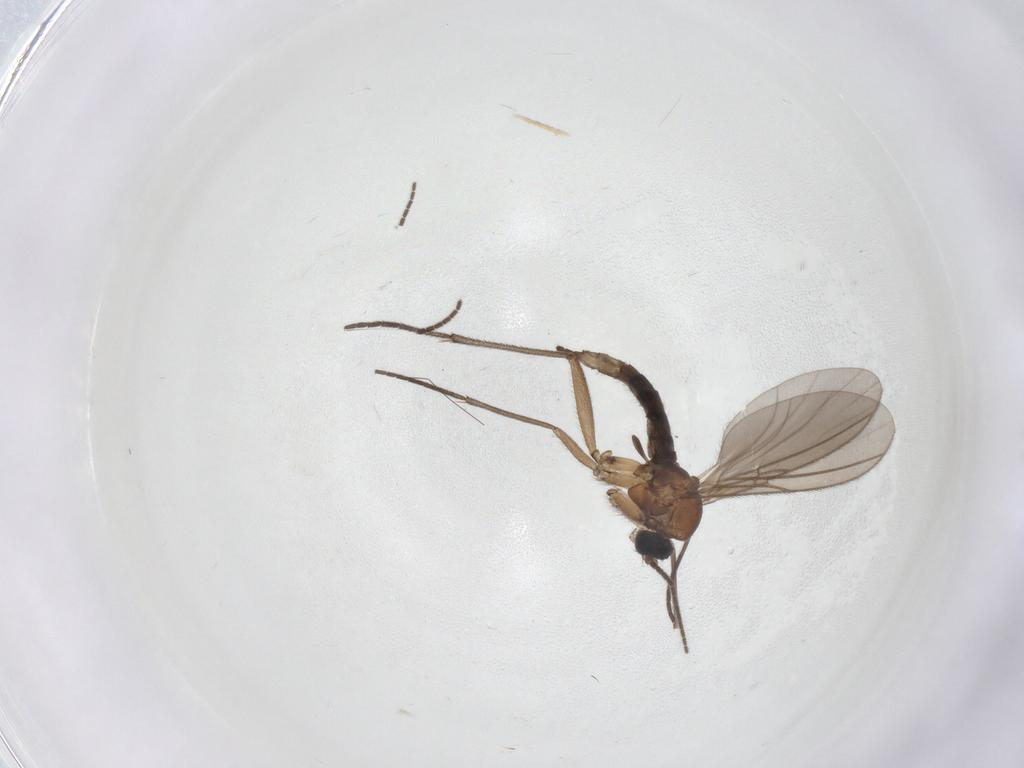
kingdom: Animalia
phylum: Arthropoda
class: Insecta
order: Diptera
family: Sciaridae
